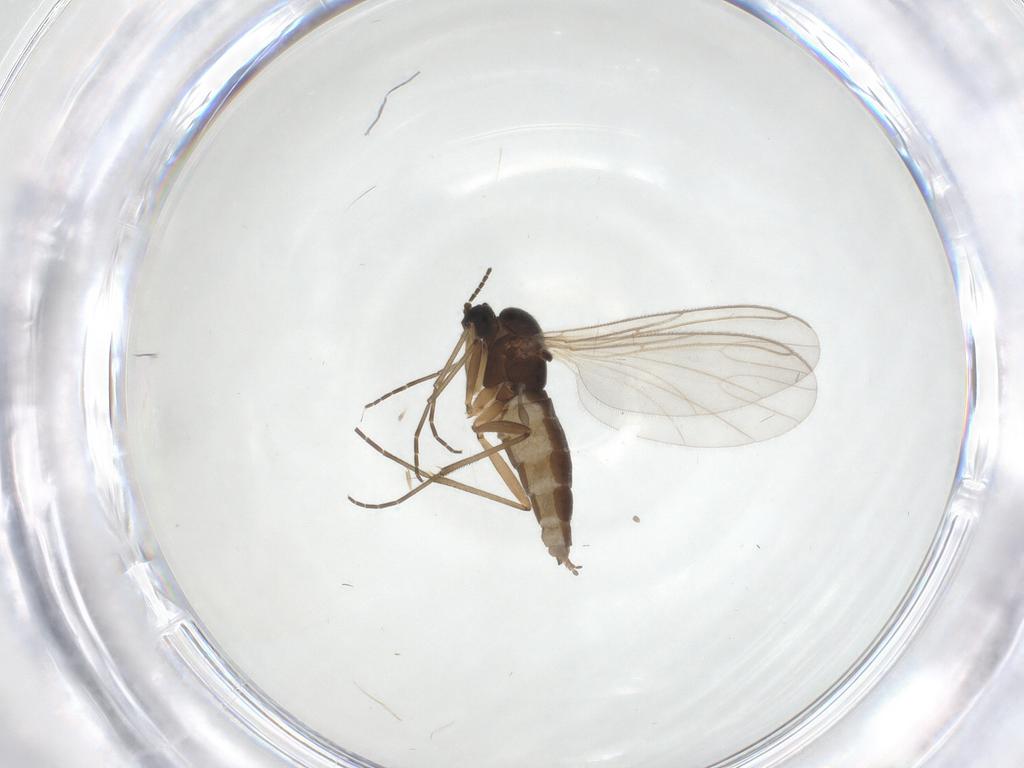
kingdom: Animalia
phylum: Arthropoda
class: Insecta
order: Diptera
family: Sciaridae
